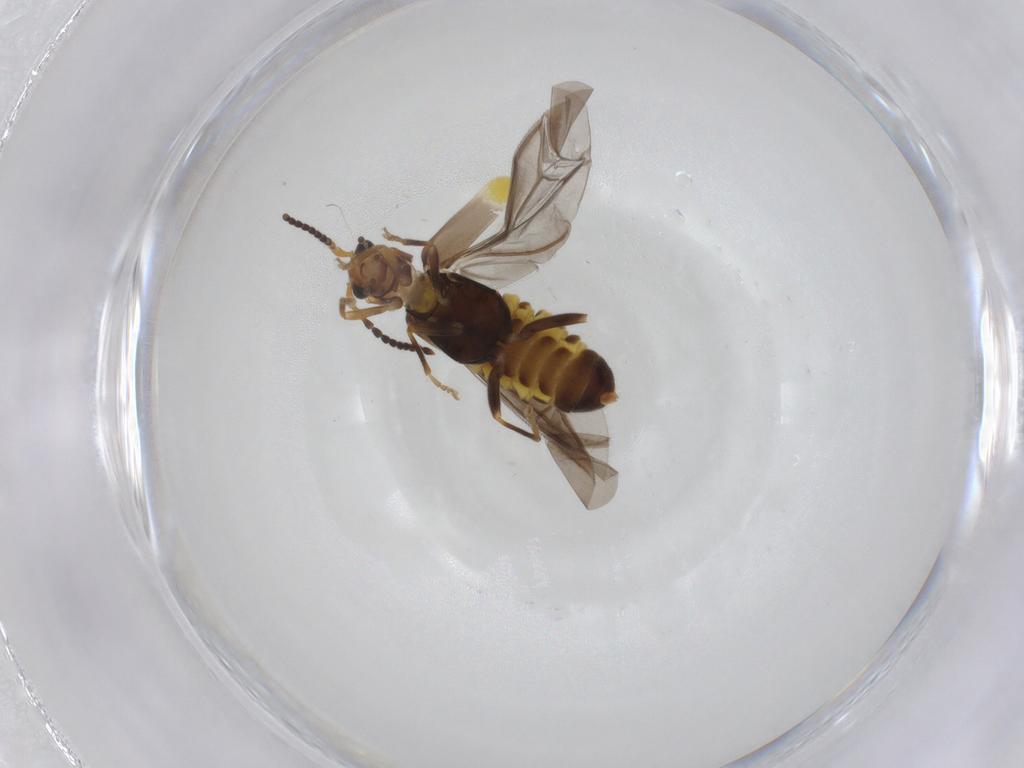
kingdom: Animalia
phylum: Arthropoda
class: Insecta
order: Coleoptera
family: Cantharidae
